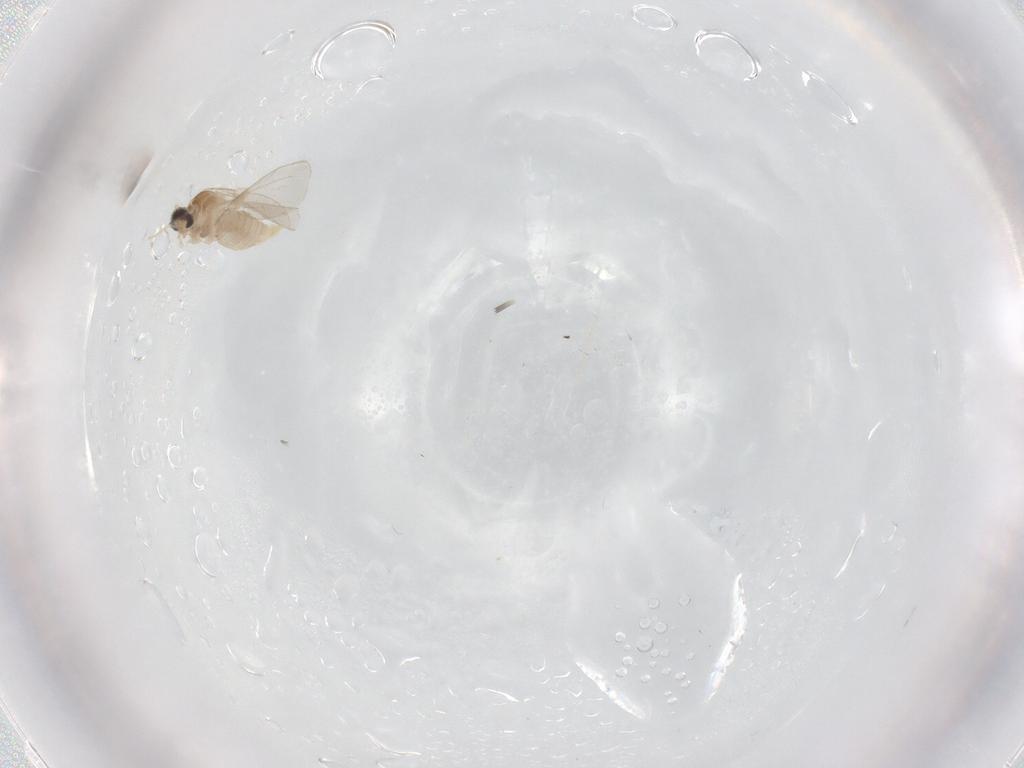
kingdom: Animalia
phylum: Arthropoda
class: Insecta
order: Diptera
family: Cecidomyiidae
